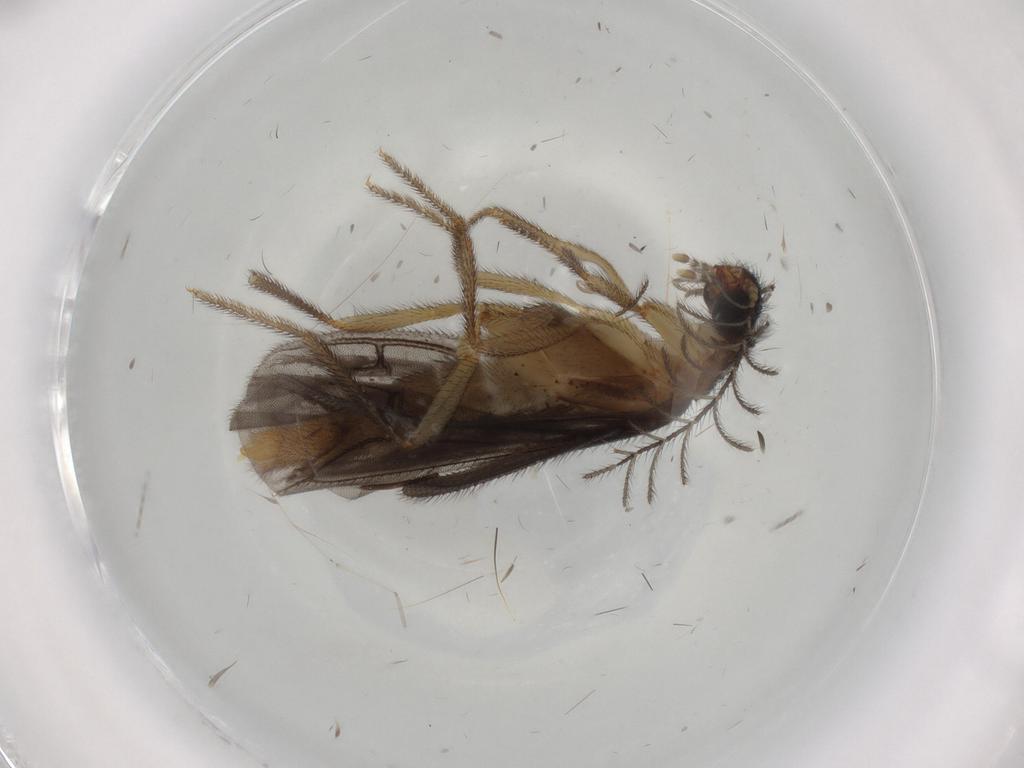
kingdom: Animalia
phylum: Arthropoda
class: Insecta
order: Coleoptera
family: Phengodidae
